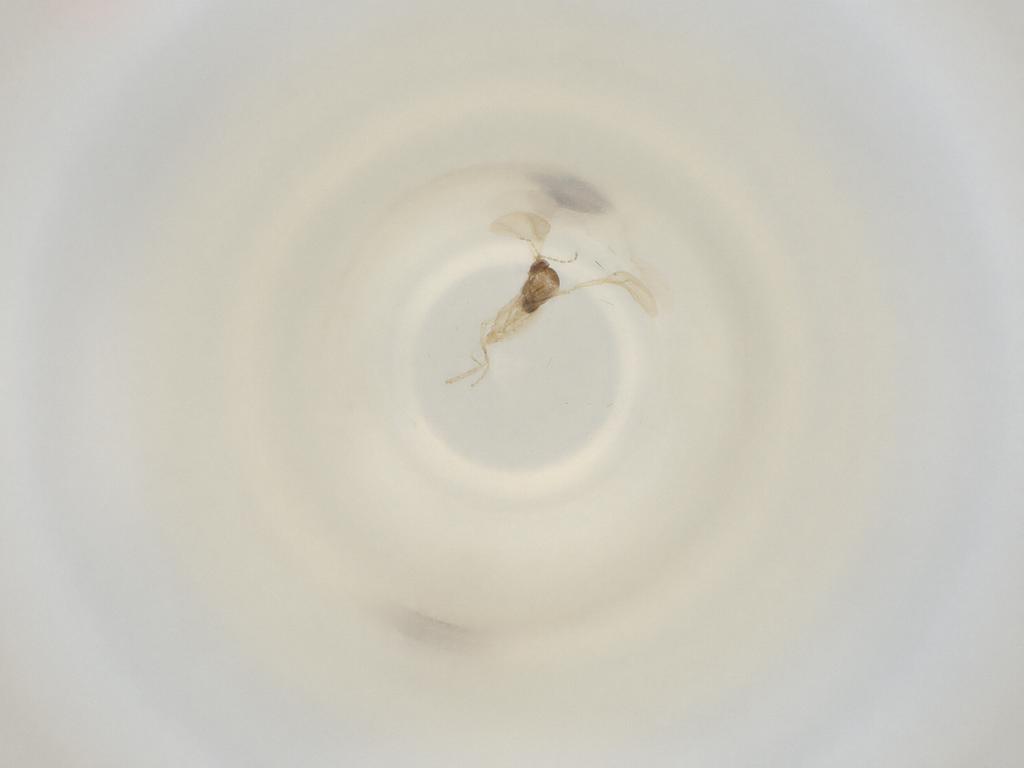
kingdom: Animalia
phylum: Arthropoda
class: Insecta
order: Diptera
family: Cecidomyiidae
